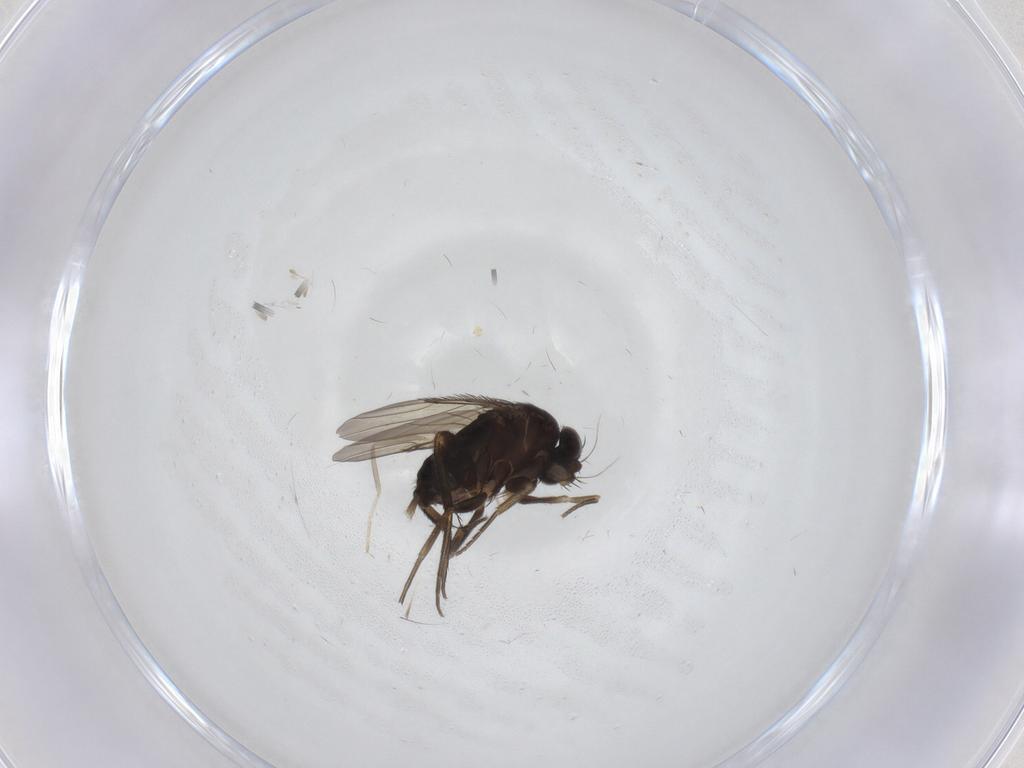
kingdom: Animalia
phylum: Arthropoda
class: Insecta
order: Diptera
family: Phoridae
